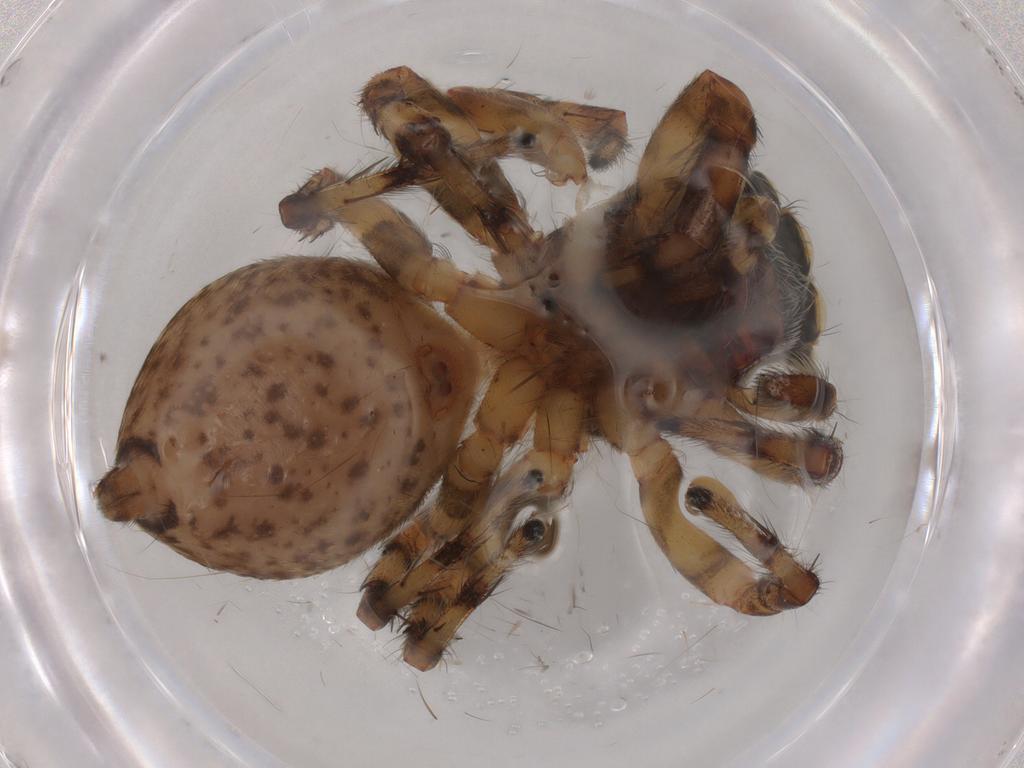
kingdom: Animalia
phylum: Arthropoda
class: Arachnida
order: Araneae
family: Salticidae
